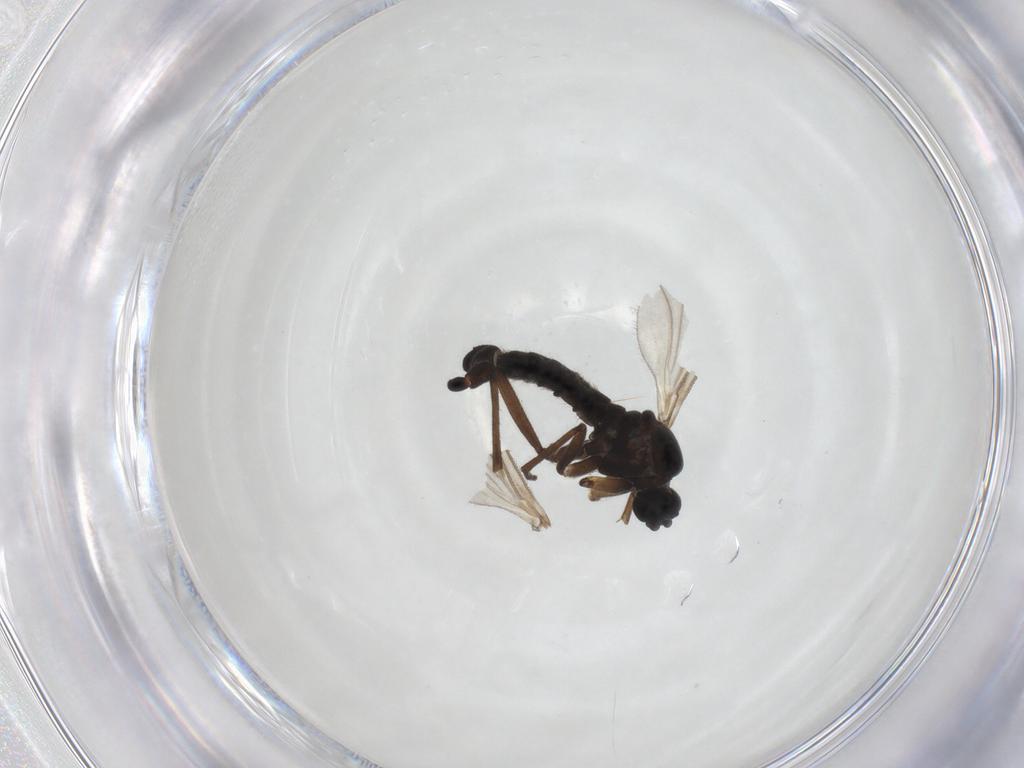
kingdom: Animalia
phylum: Arthropoda
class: Insecta
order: Diptera
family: Sciaridae
